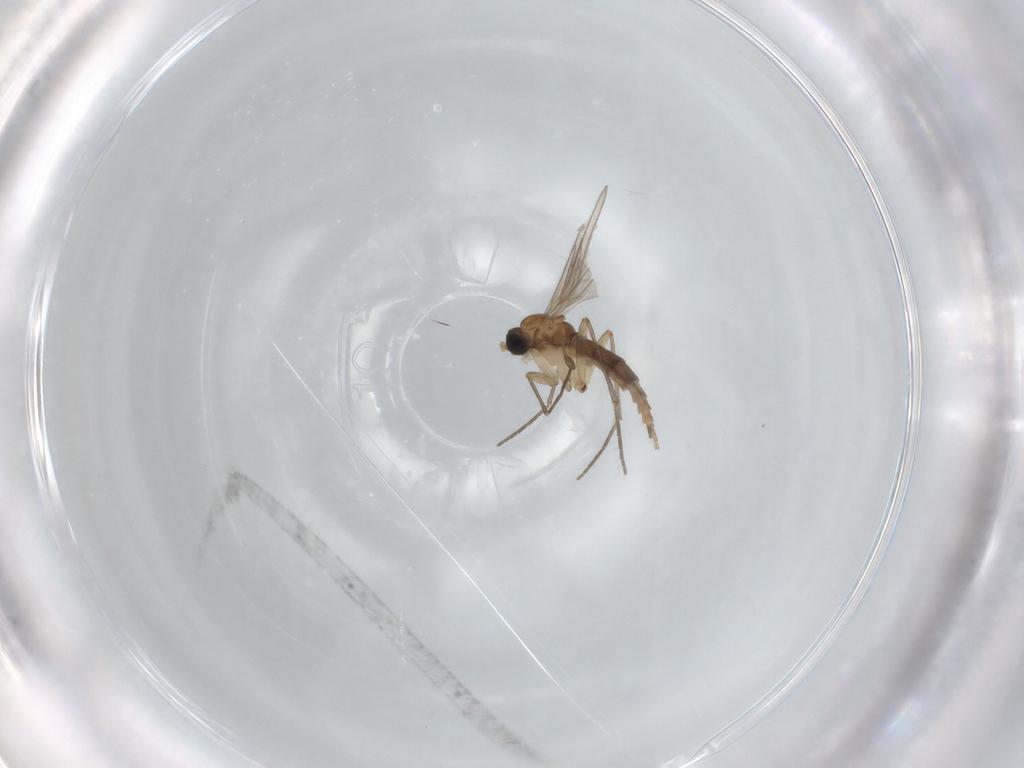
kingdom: Animalia
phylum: Arthropoda
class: Insecta
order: Diptera
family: Sciaridae
